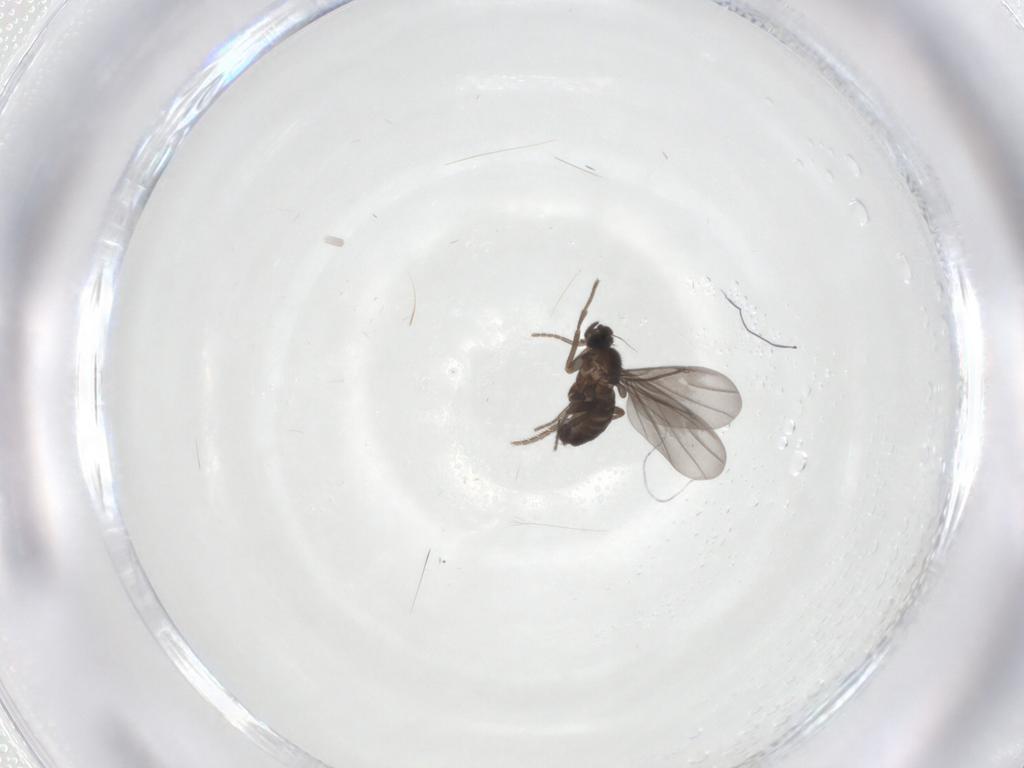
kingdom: Animalia
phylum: Arthropoda
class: Insecta
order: Diptera
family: Phoridae
